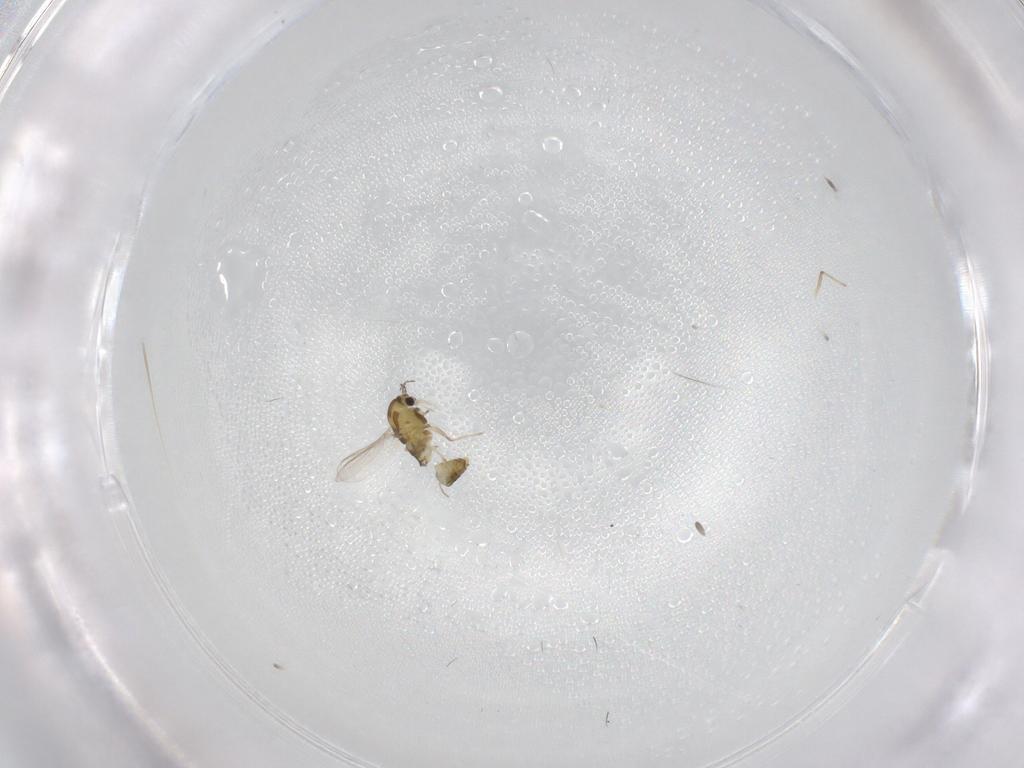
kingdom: Animalia
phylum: Arthropoda
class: Insecta
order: Diptera
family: Chironomidae
